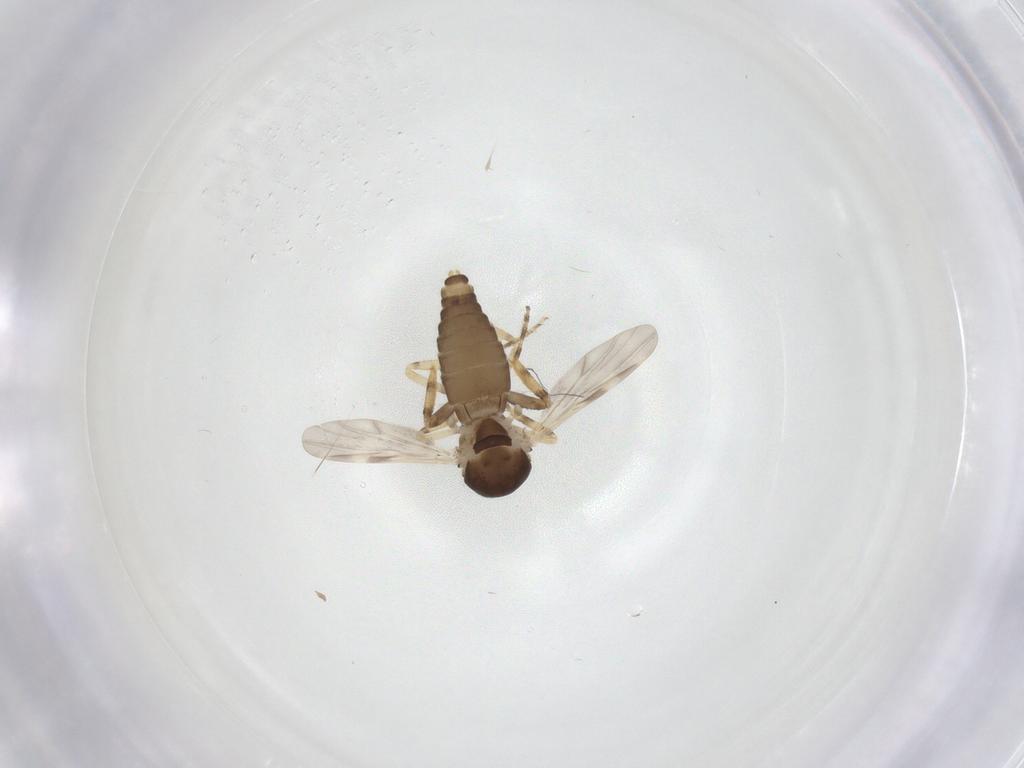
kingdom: Animalia
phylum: Arthropoda
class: Insecta
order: Diptera
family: Ceratopogonidae
